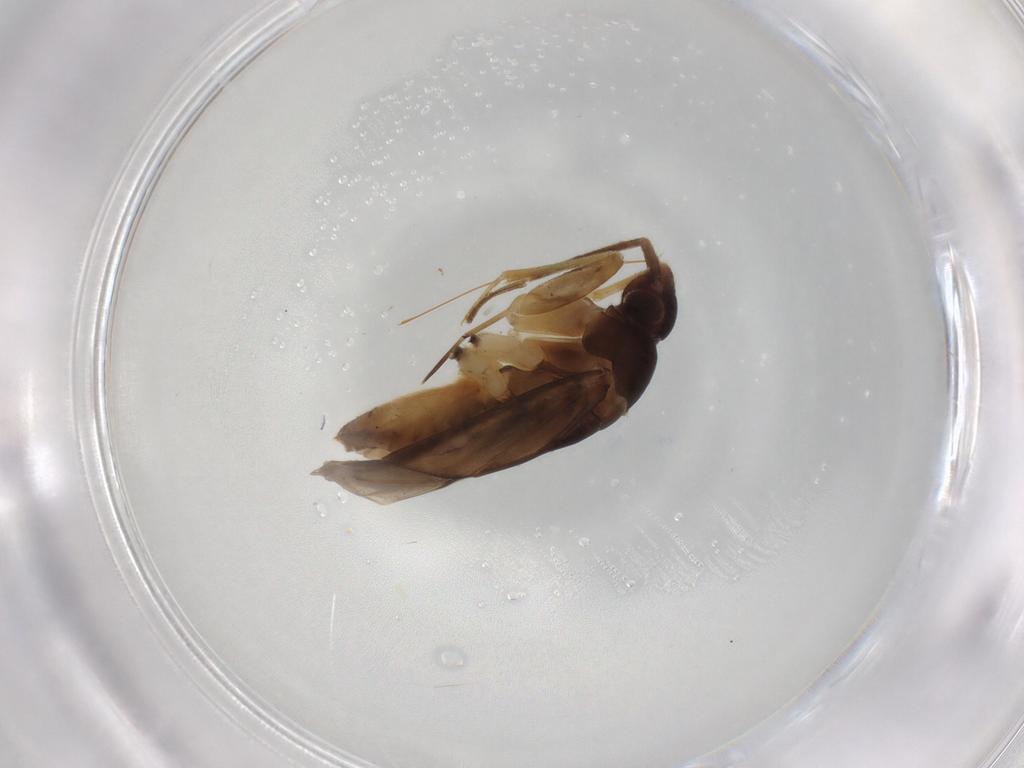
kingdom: Animalia
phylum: Arthropoda
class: Insecta
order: Hemiptera
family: Miridae
